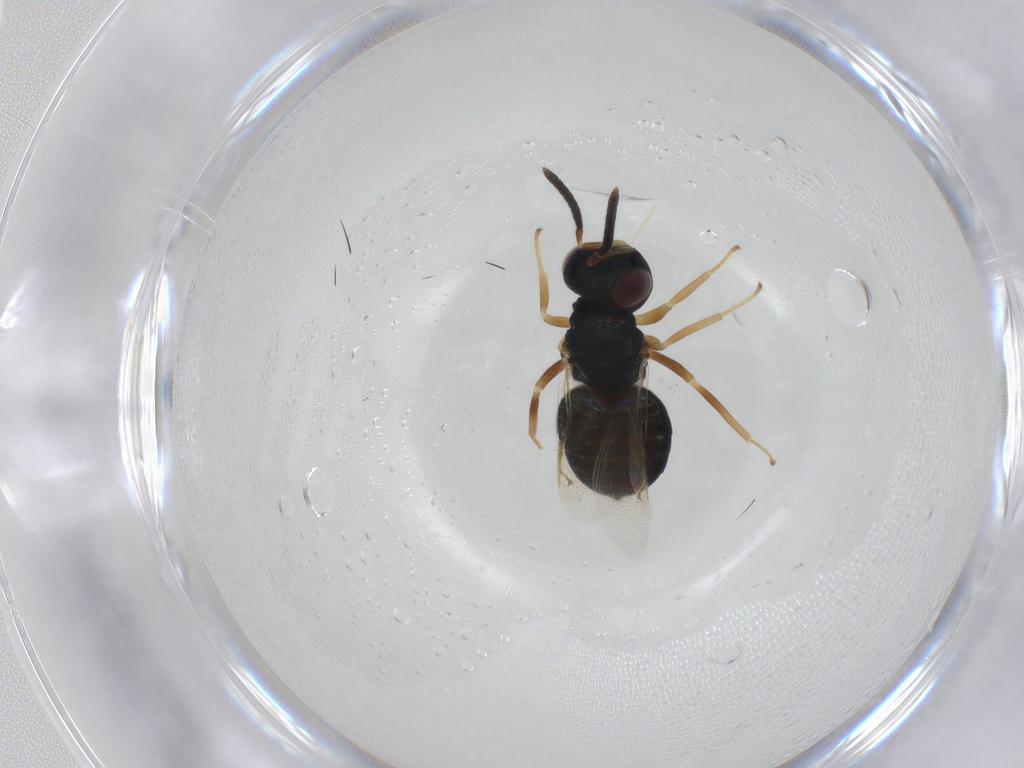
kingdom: Animalia
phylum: Arthropoda
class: Insecta
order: Hymenoptera
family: Pteromalidae
